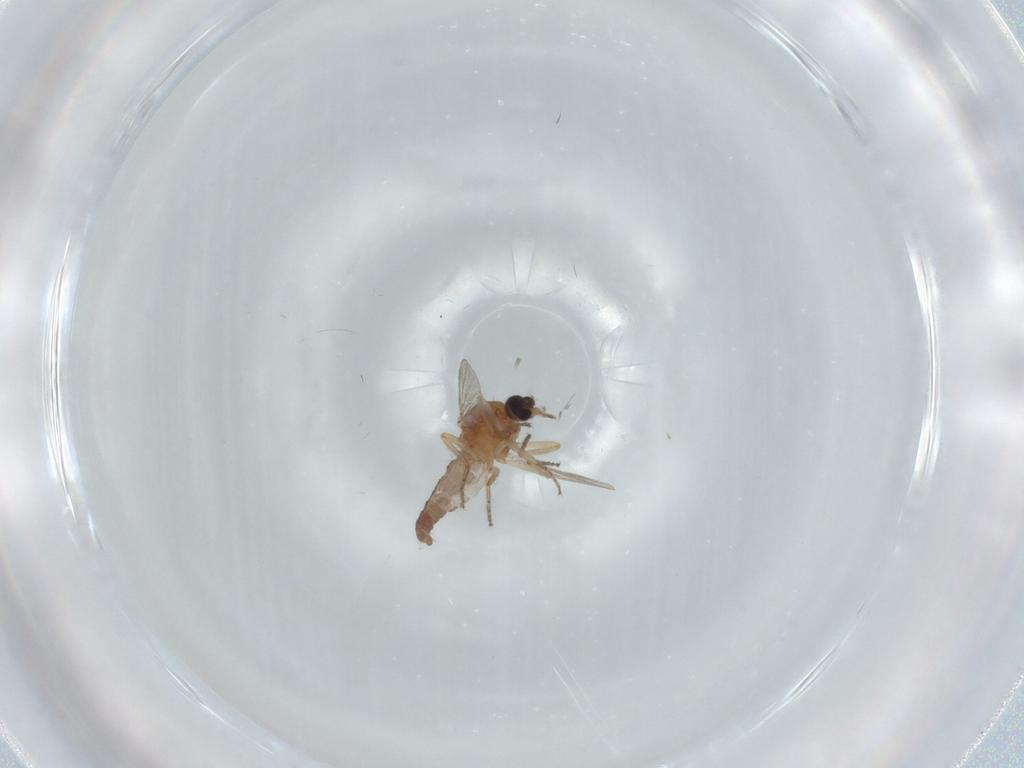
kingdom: Animalia
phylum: Arthropoda
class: Insecta
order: Diptera
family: Ceratopogonidae
